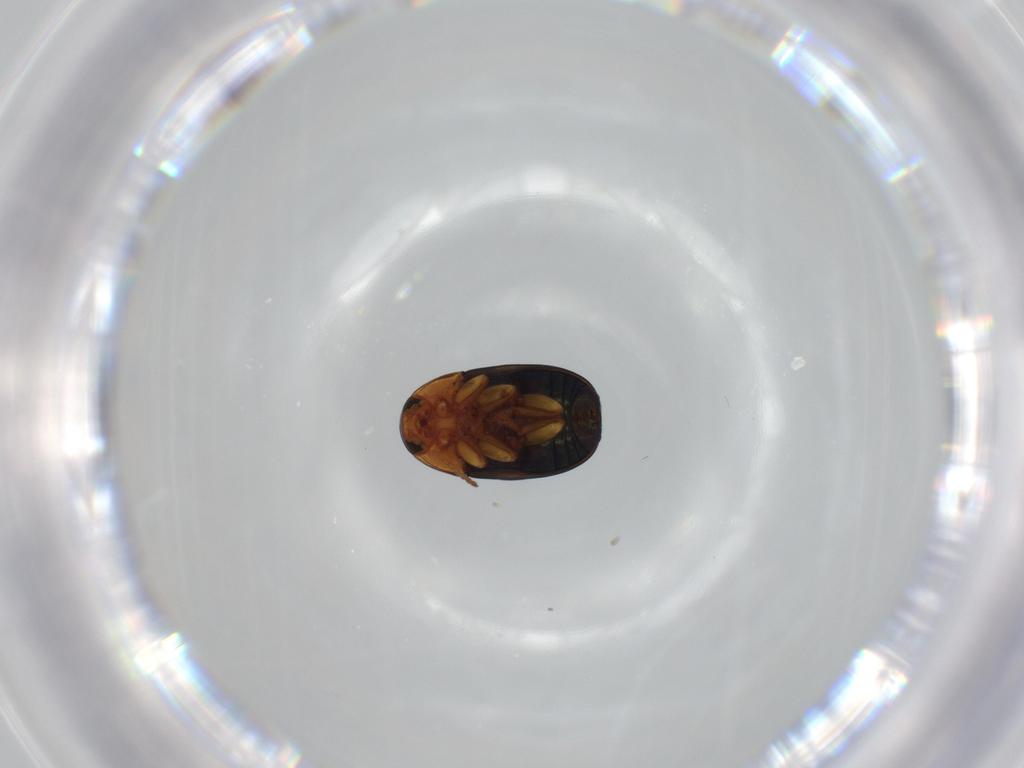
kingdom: Animalia
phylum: Arthropoda
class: Insecta
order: Coleoptera
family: Chrysomelidae
